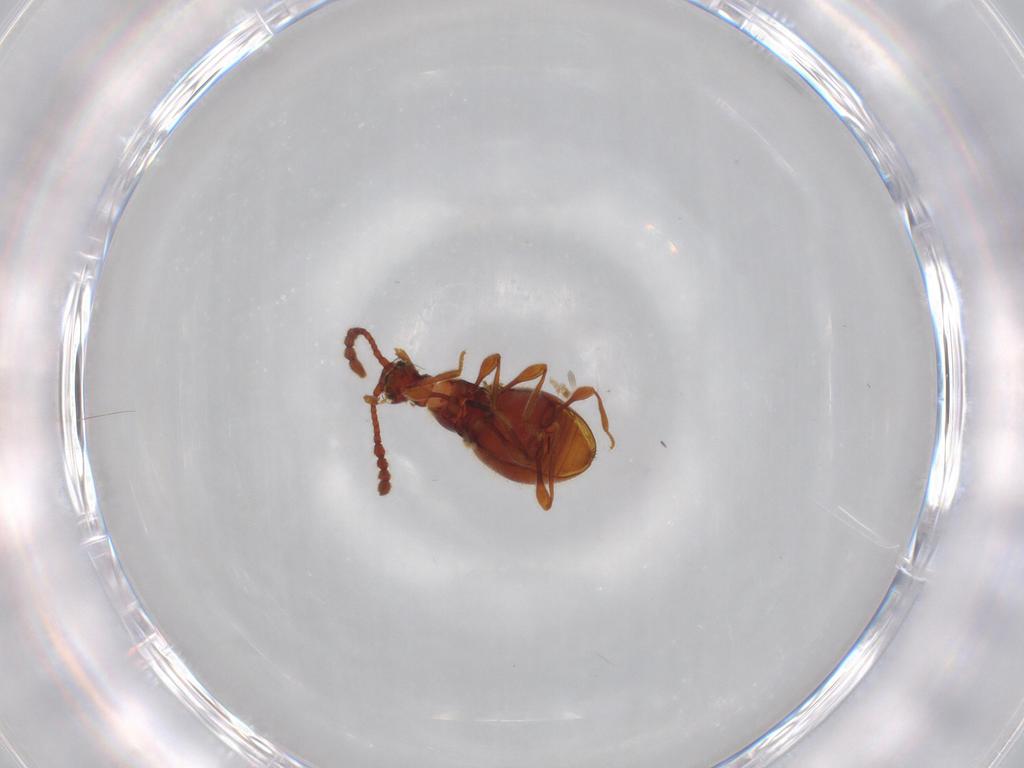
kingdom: Animalia
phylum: Arthropoda
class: Insecta
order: Coleoptera
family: Staphylinidae
